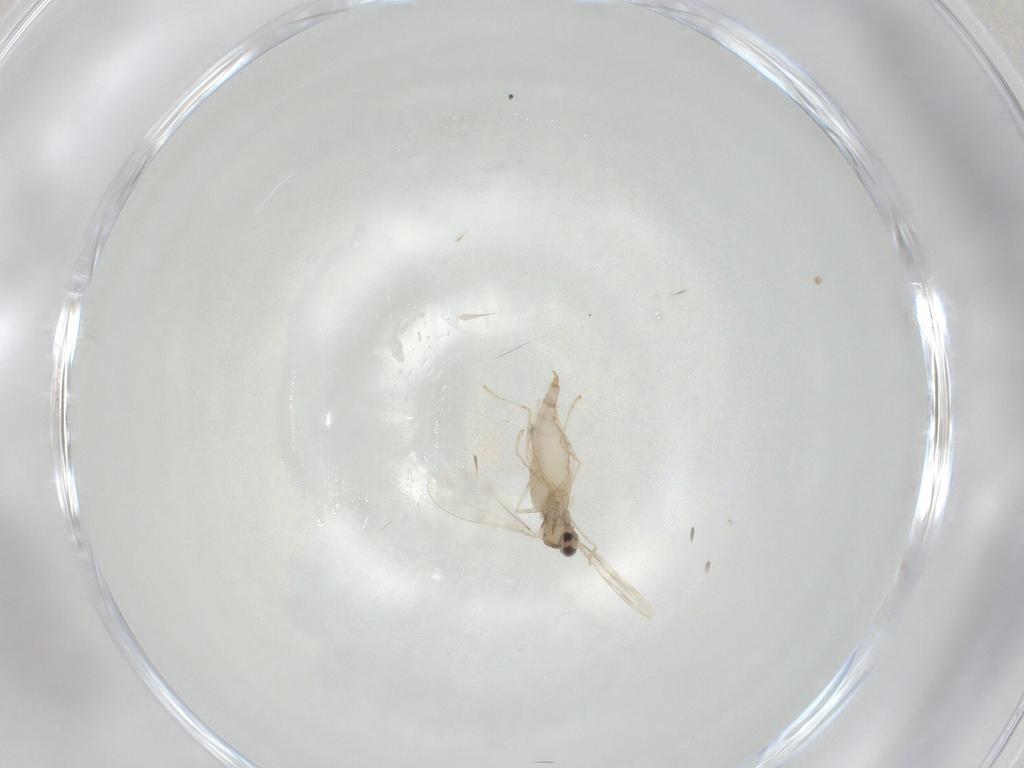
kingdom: Animalia
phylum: Arthropoda
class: Insecta
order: Diptera
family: Cecidomyiidae
